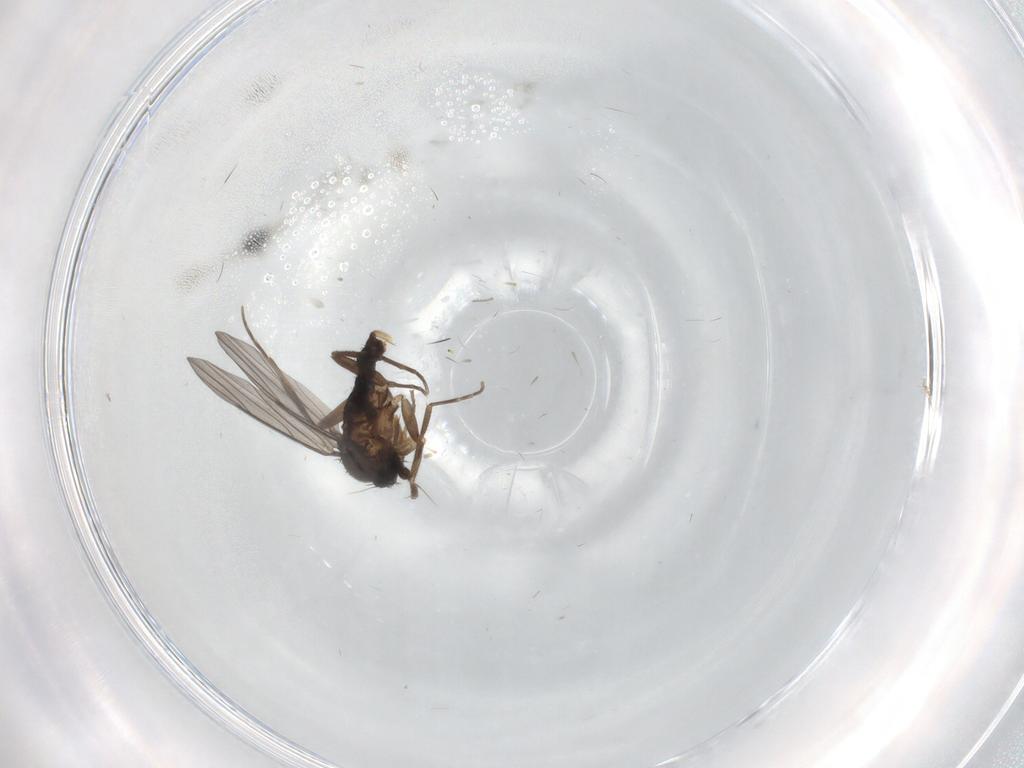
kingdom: Animalia
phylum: Arthropoda
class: Insecta
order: Diptera
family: Phoridae
